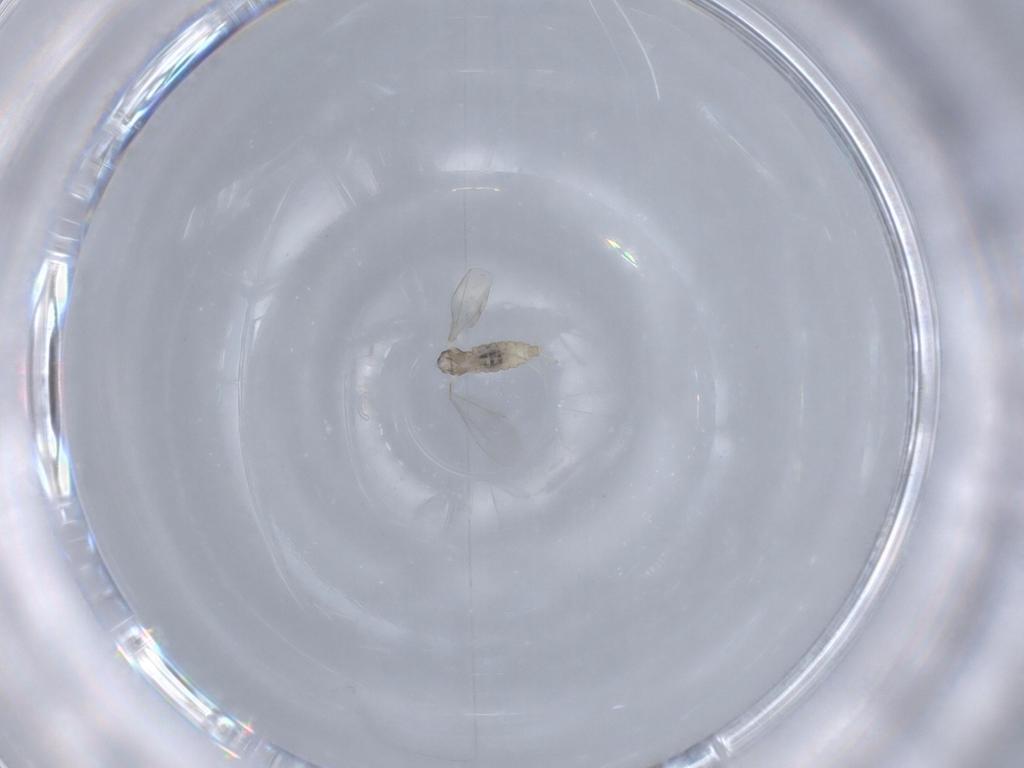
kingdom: Animalia
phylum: Arthropoda
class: Insecta
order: Diptera
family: Cecidomyiidae
